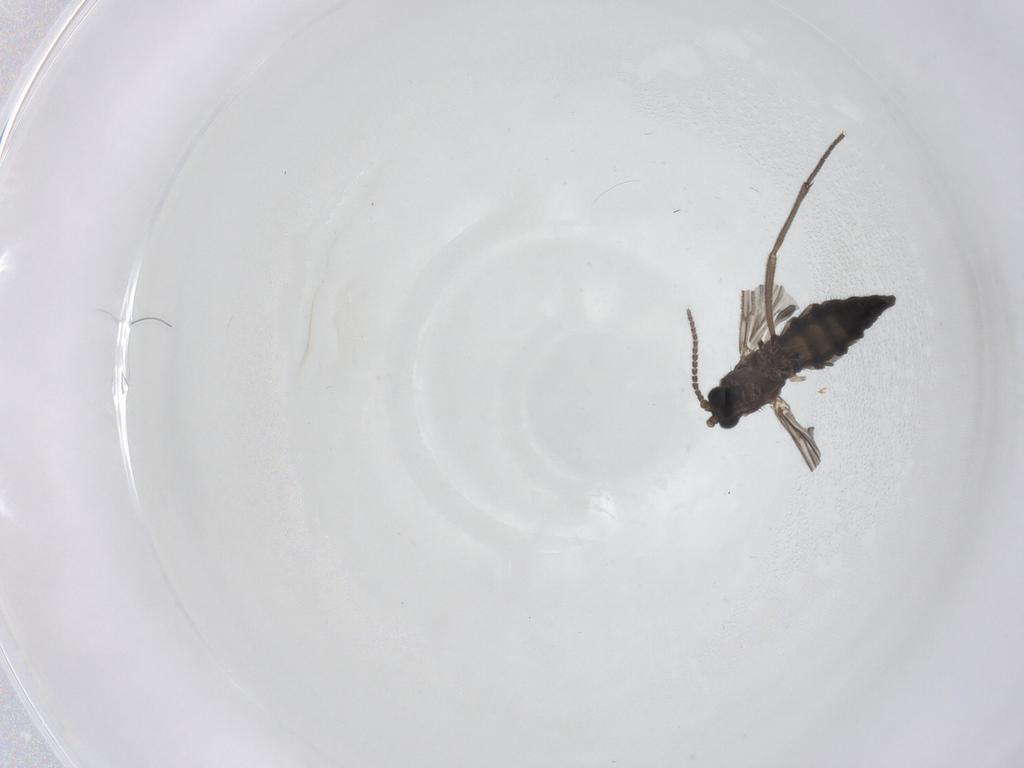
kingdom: Animalia
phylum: Arthropoda
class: Insecta
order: Diptera
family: Sciaridae
